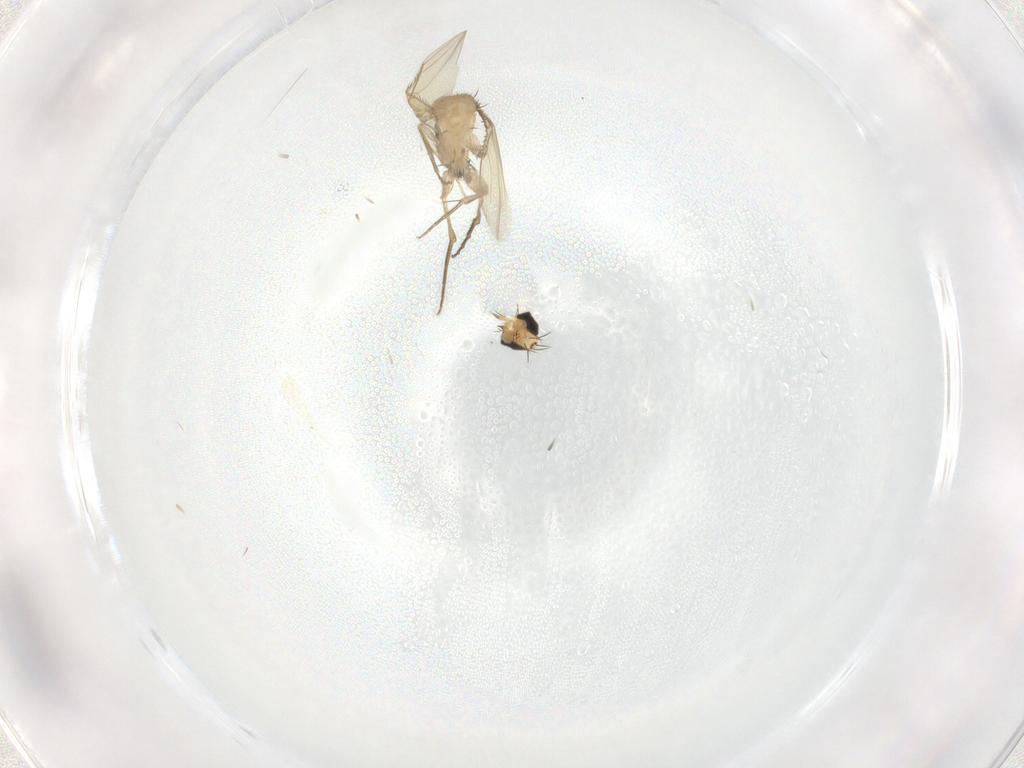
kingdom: Animalia
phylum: Arthropoda
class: Insecta
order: Diptera
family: Phoridae
